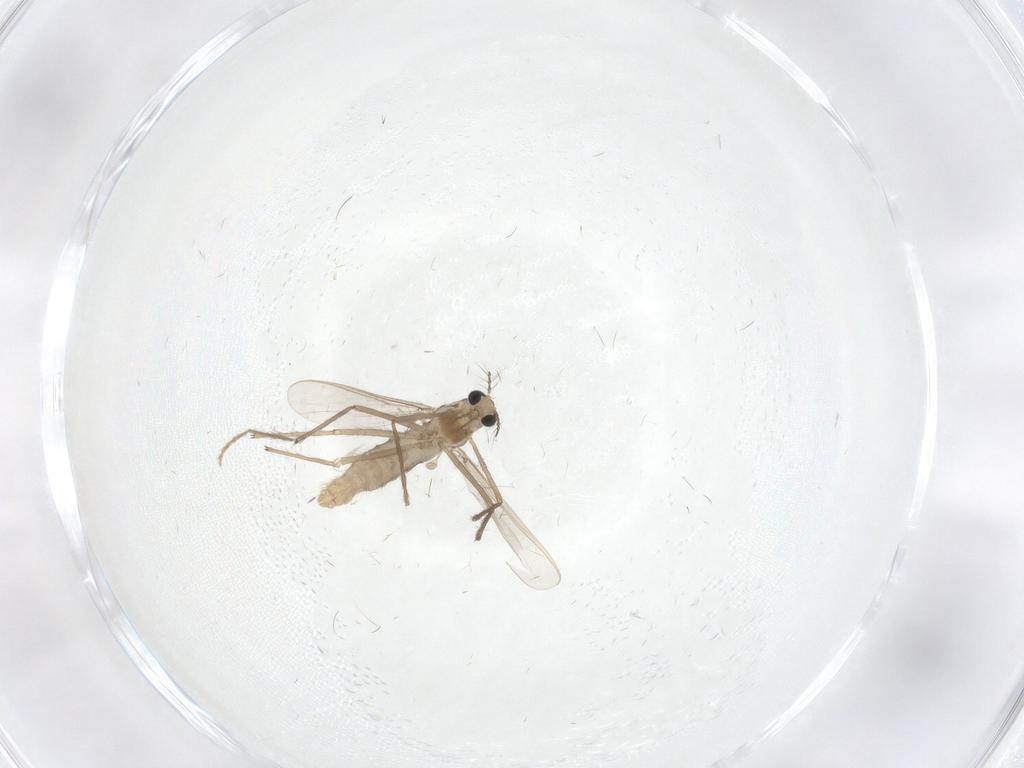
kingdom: Animalia
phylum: Arthropoda
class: Insecta
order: Diptera
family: Chironomidae
